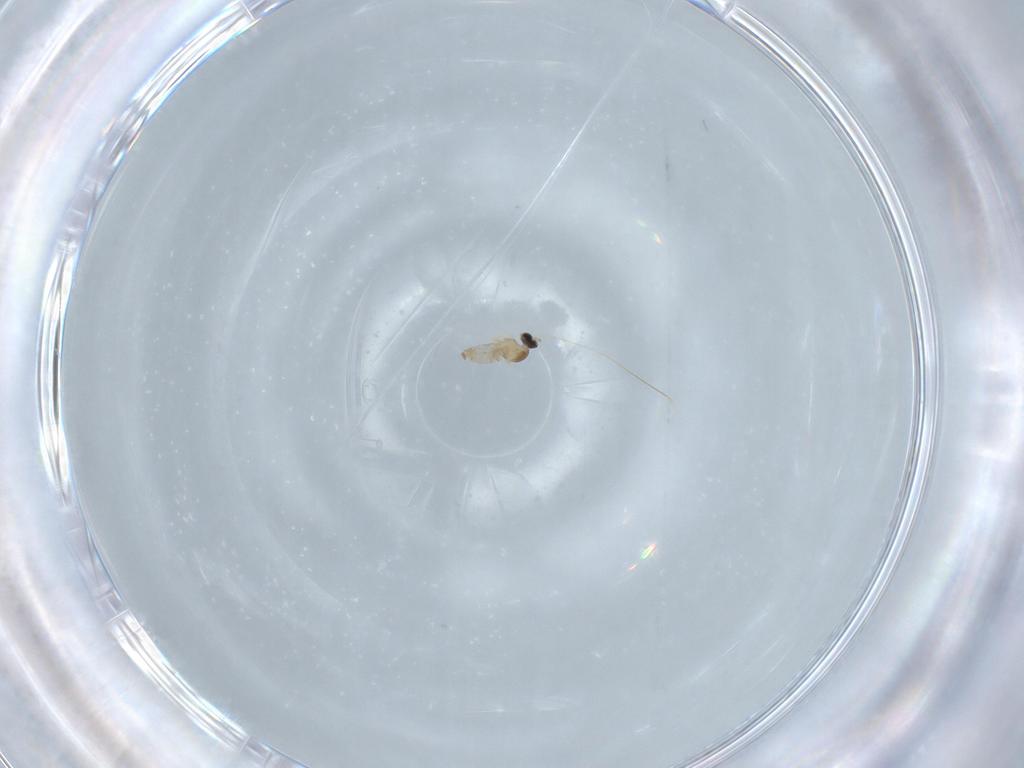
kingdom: Animalia
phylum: Arthropoda
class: Insecta
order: Diptera
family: Cecidomyiidae
